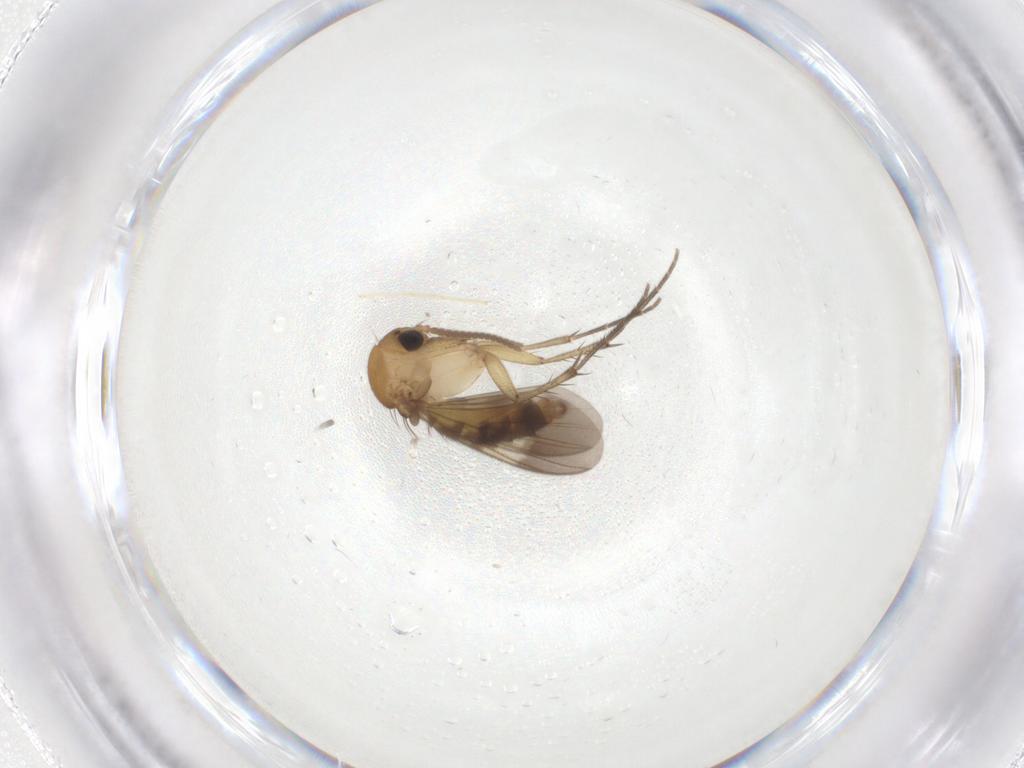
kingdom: Animalia
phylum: Arthropoda
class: Insecta
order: Diptera
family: Chironomidae
